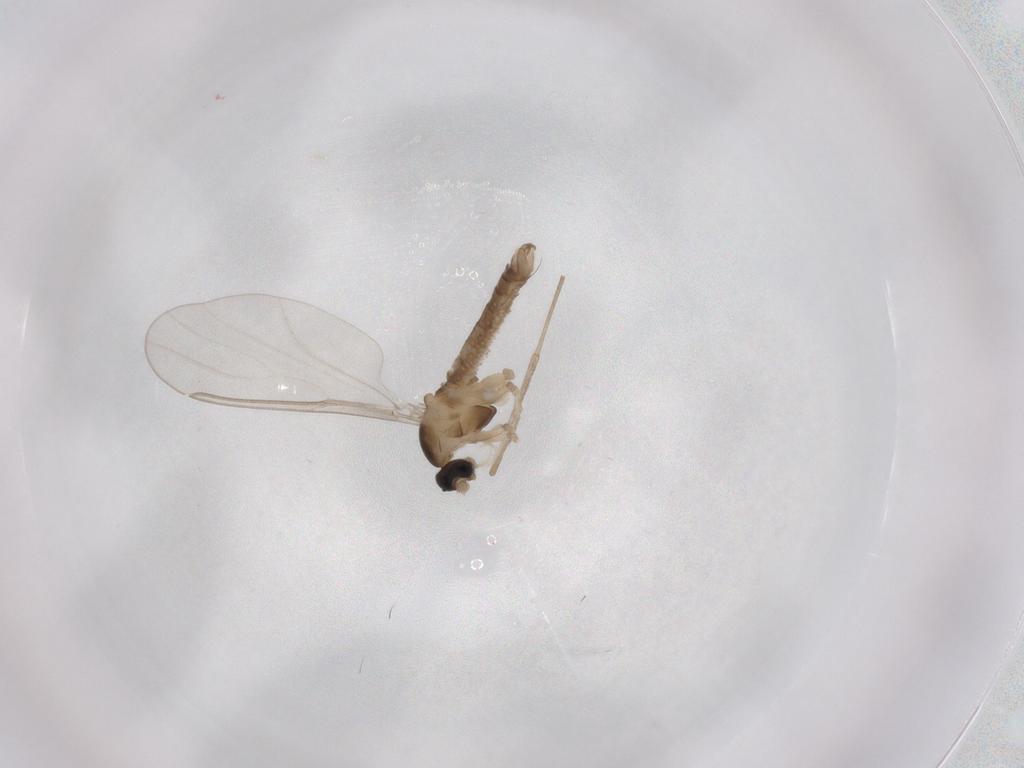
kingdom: Animalia
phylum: Arthropoda
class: Insecta
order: Diptera
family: Cecidomyiidae
